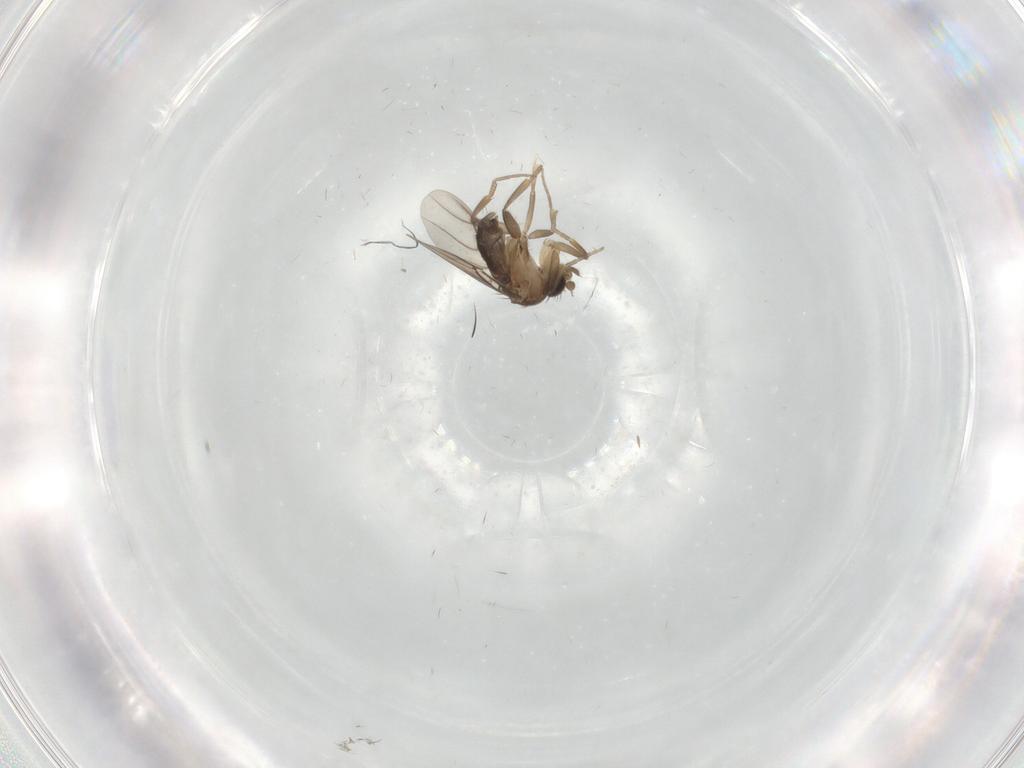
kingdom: Animalia
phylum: Arthropoda
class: Insecta
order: Diptera
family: Phoridae
